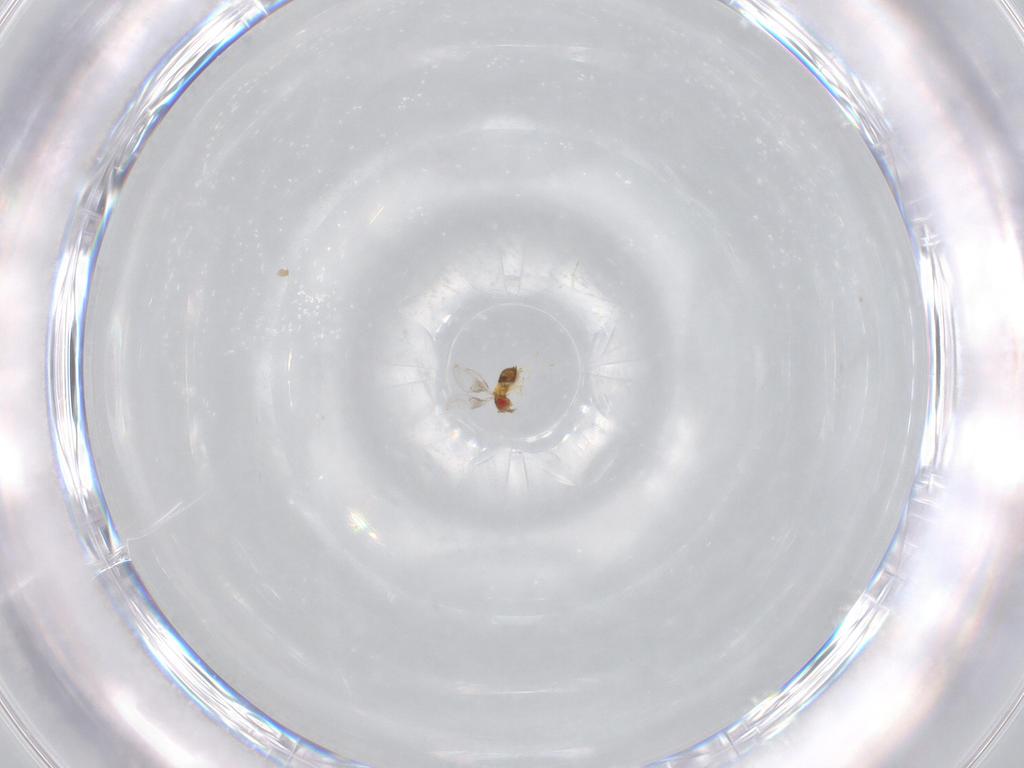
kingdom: Animalia
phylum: Arthropoda
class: Insecta
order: Hymenoptera
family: Trichogrammatidae
